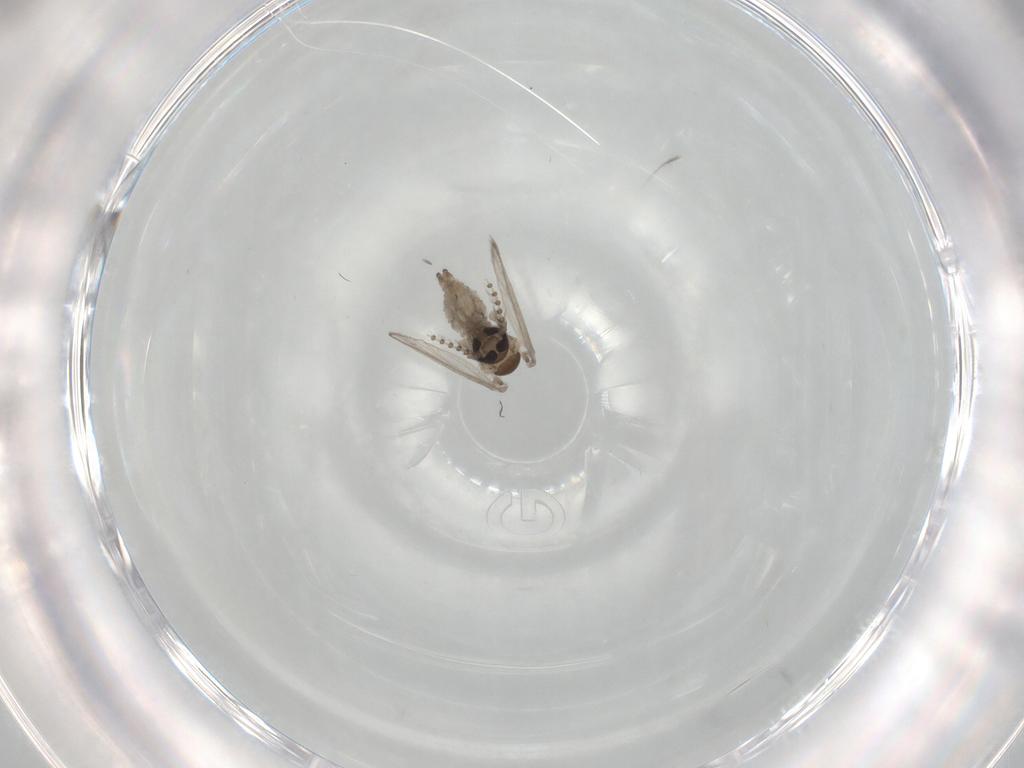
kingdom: Animalia
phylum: Arthropoda
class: Insecta
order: Diptera
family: Psychodidae
